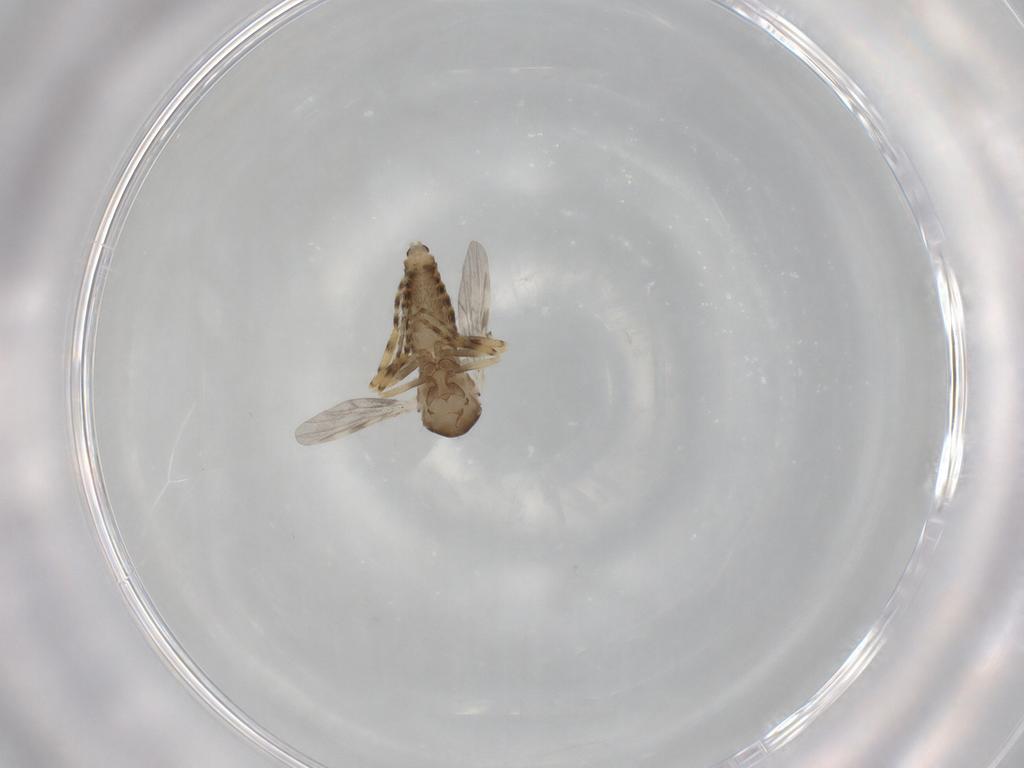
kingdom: Animalia
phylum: Arthropoda
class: Insecta
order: Diptera
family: Ceratopogonidae
